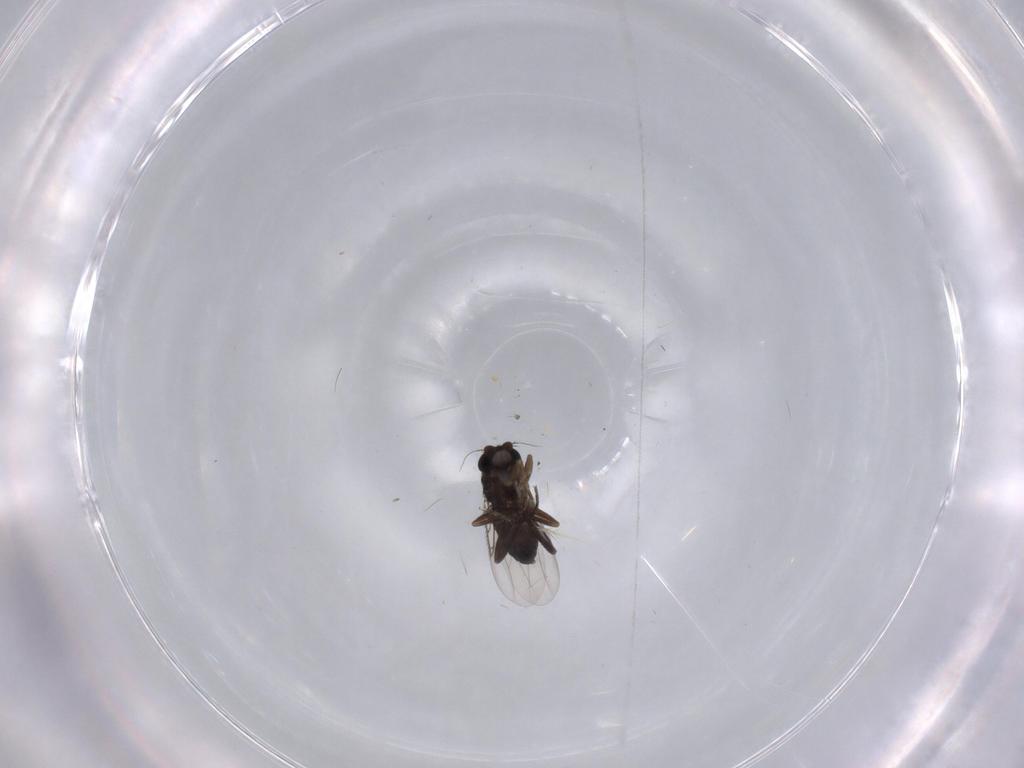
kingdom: Animalia
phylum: Arthropoda
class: Insecta
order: Diptera
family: Phoridae
